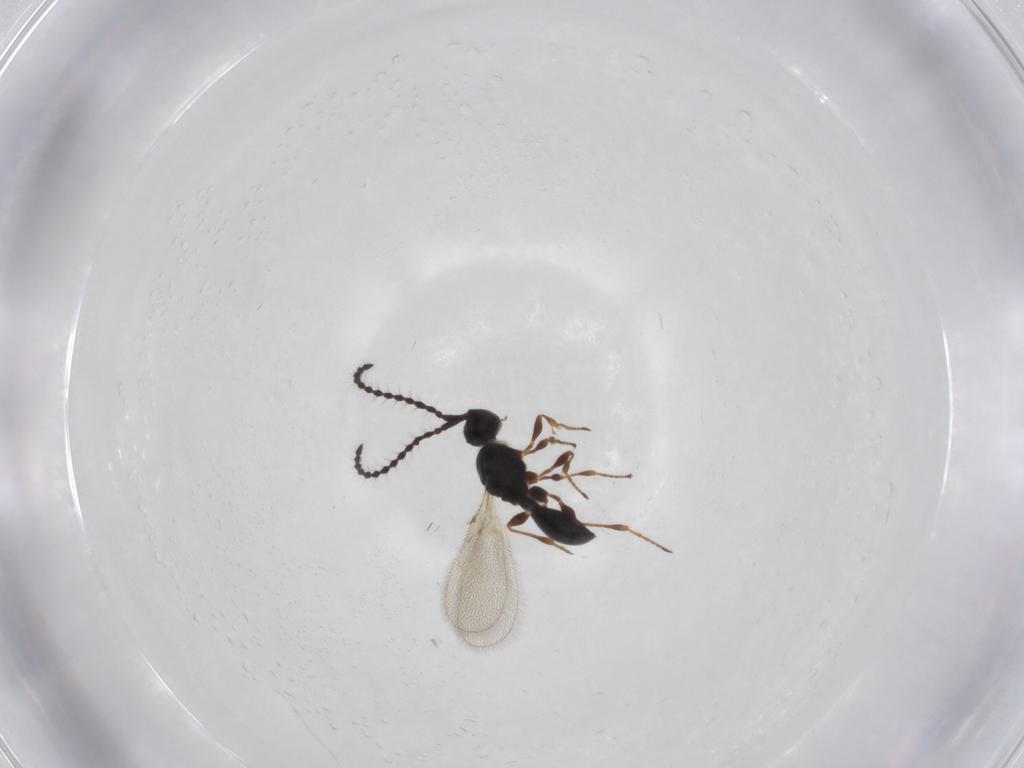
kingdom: Animalia
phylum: Arthropoda
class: Insecta
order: Hymenoptera
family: Diapriidae
